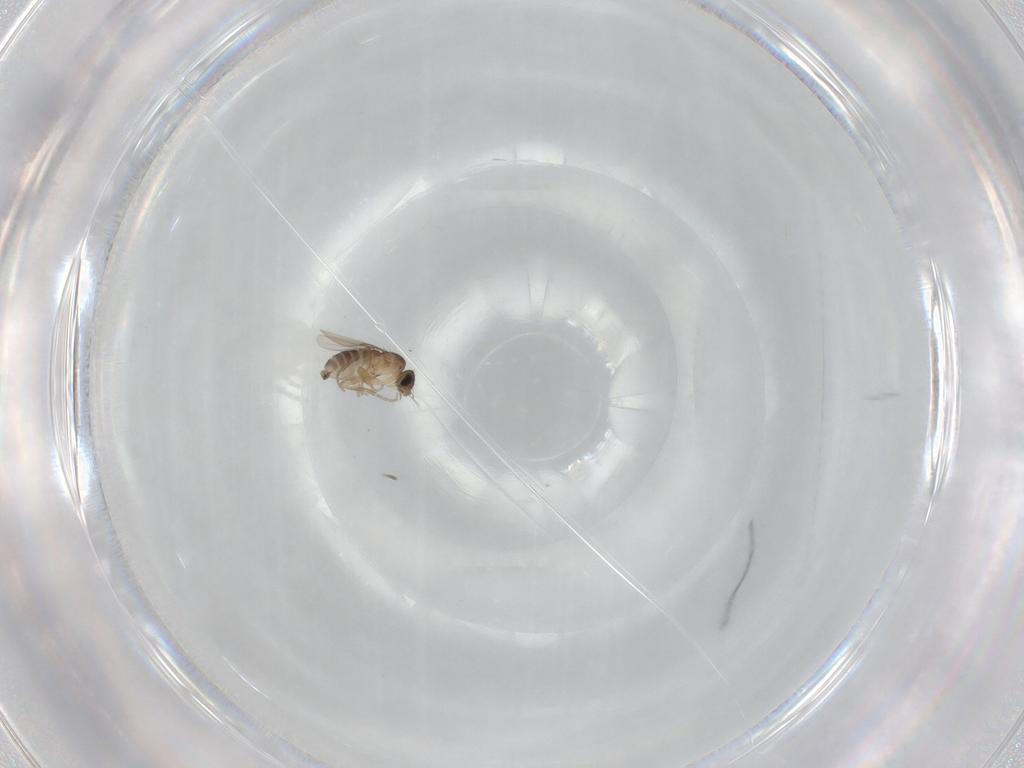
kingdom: Animalia
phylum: Arthropoda
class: Insecta
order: Diptera
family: Phoridae
